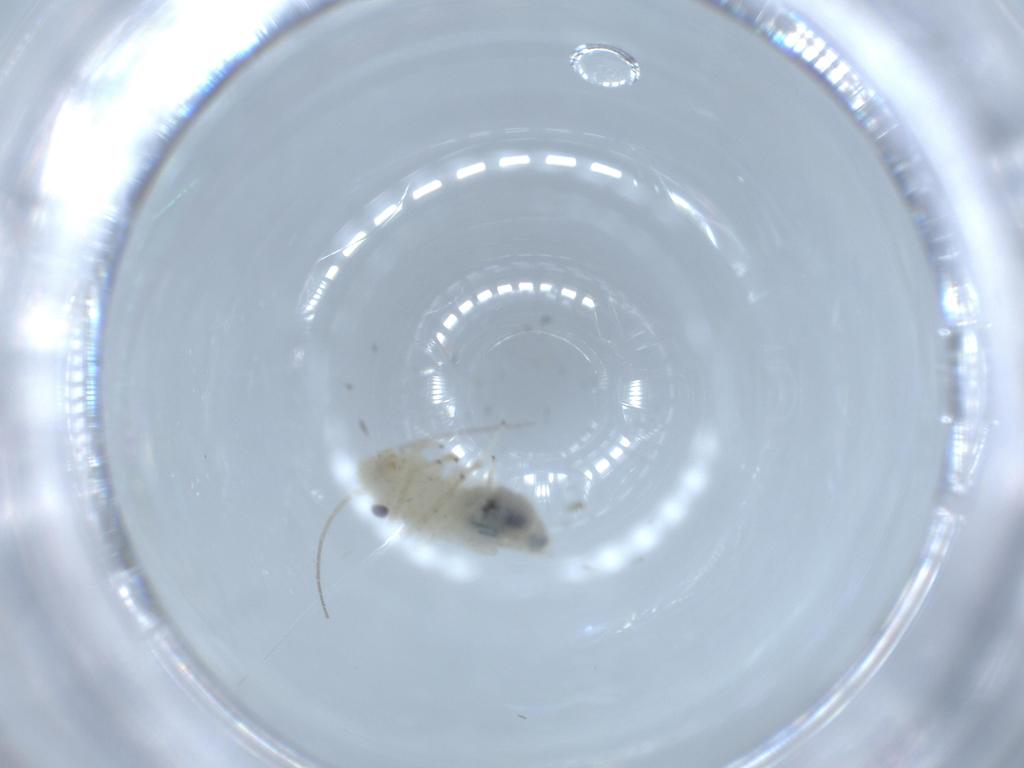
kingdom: Animalia
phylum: Arthropoda
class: Insecta
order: Psocodea
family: Caeciliusidae
